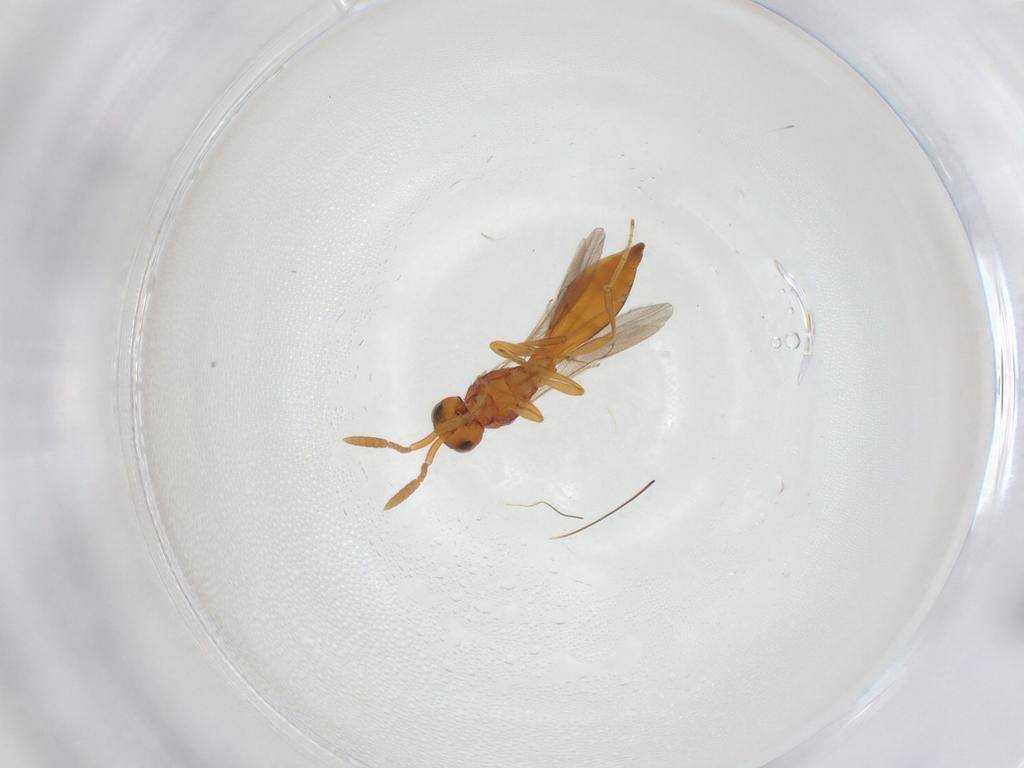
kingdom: Animalia
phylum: Arthropoda
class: Insecta
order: Hymenoptera
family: Scelionidae
